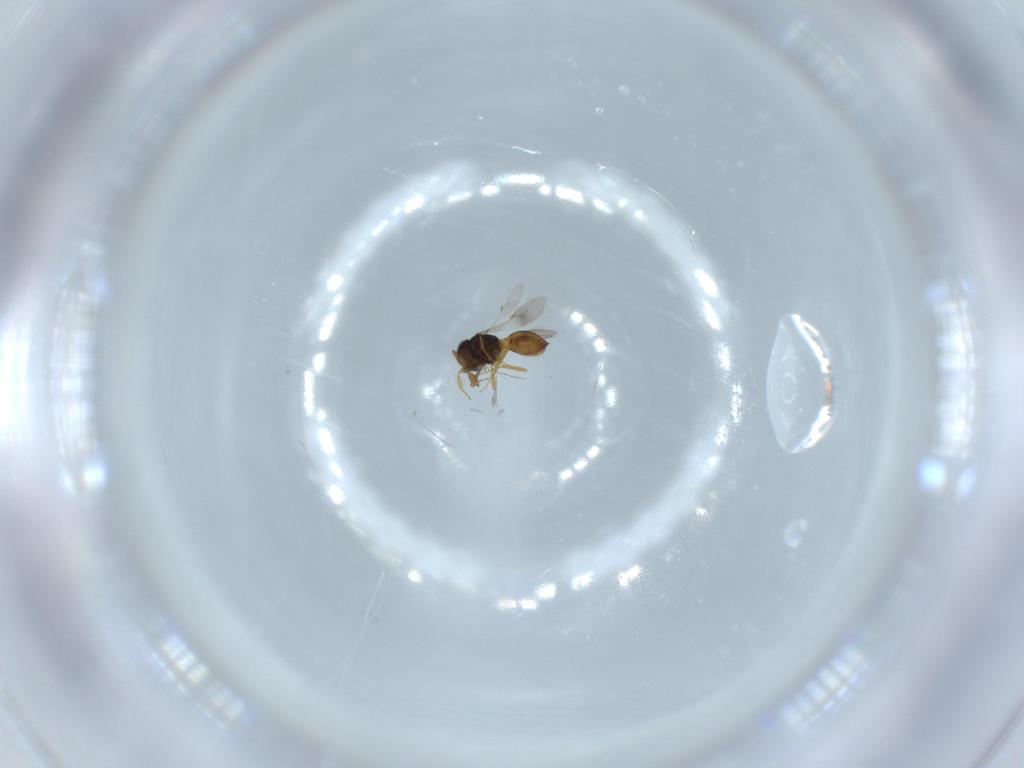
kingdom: Animalia
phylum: Arthropoda
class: Insecta
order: Hymenoptera
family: Scelionidae
